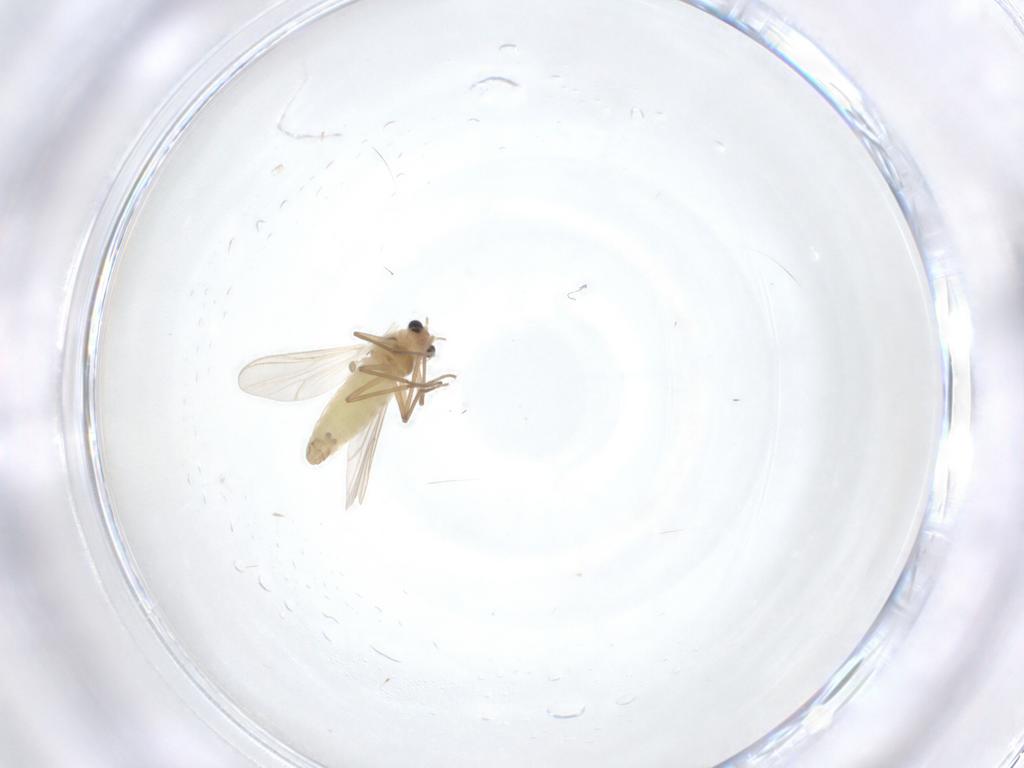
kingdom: Animalia
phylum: Arthropoda
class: Insecta
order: Diptera
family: Chironomidae
